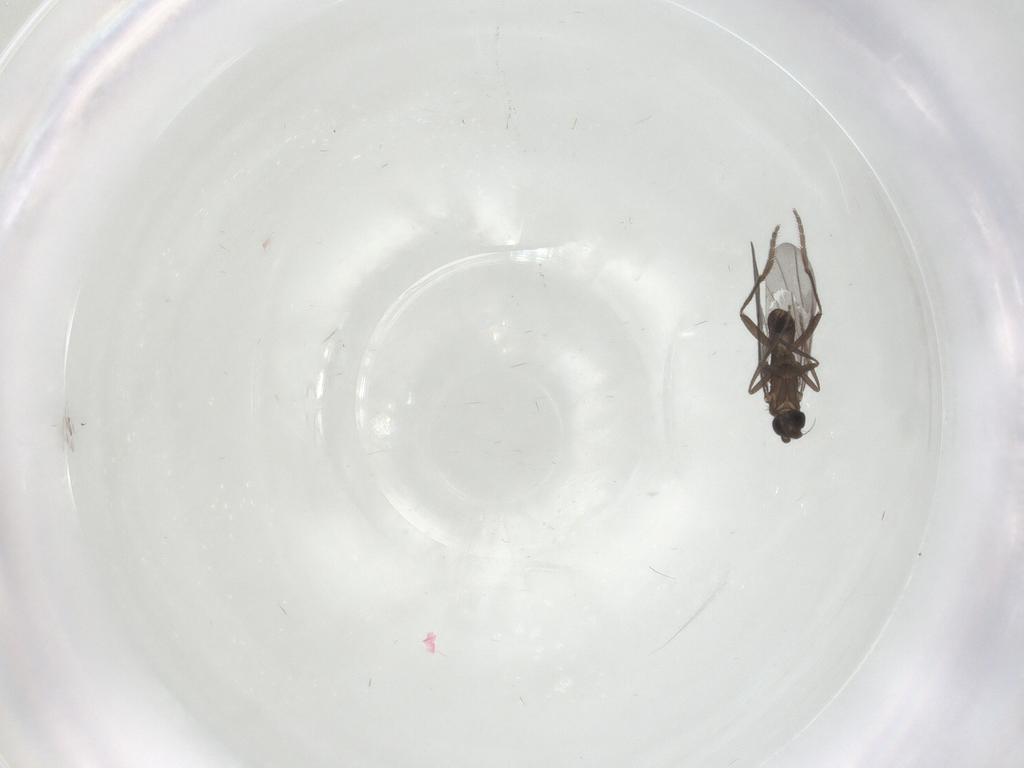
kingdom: Animalia
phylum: Arthropoda
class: Insecta
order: Diptera
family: Phoridae
